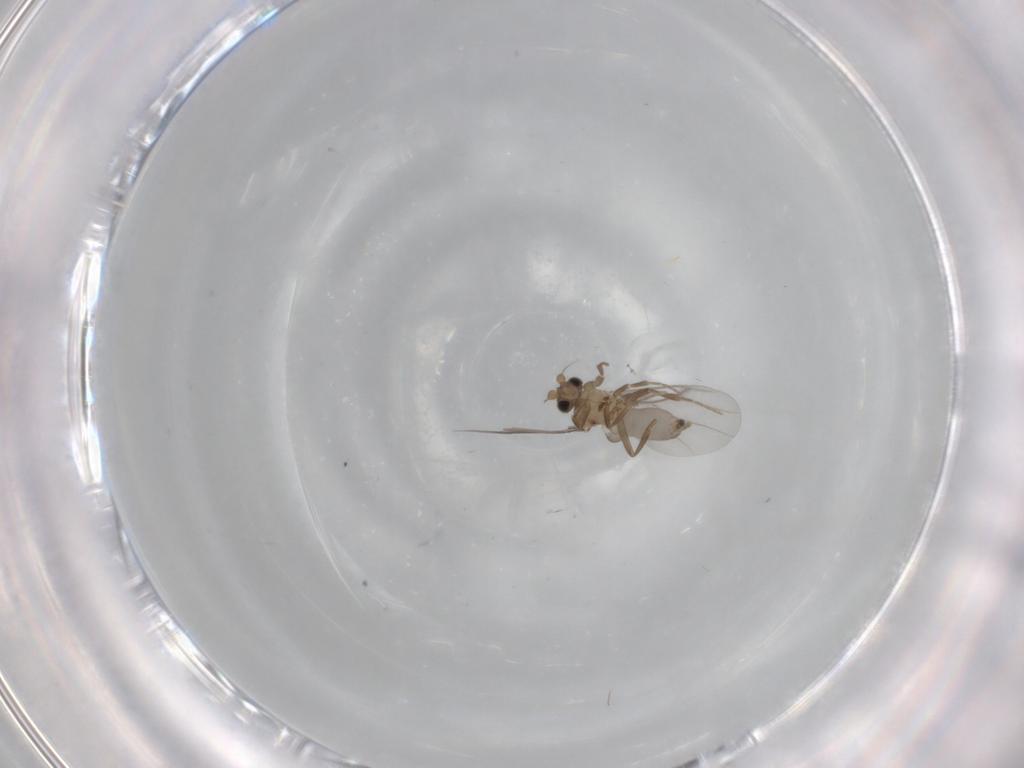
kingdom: Animalia
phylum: Arthropoda
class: Insecta
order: Diptera
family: Cecidomyiidae
